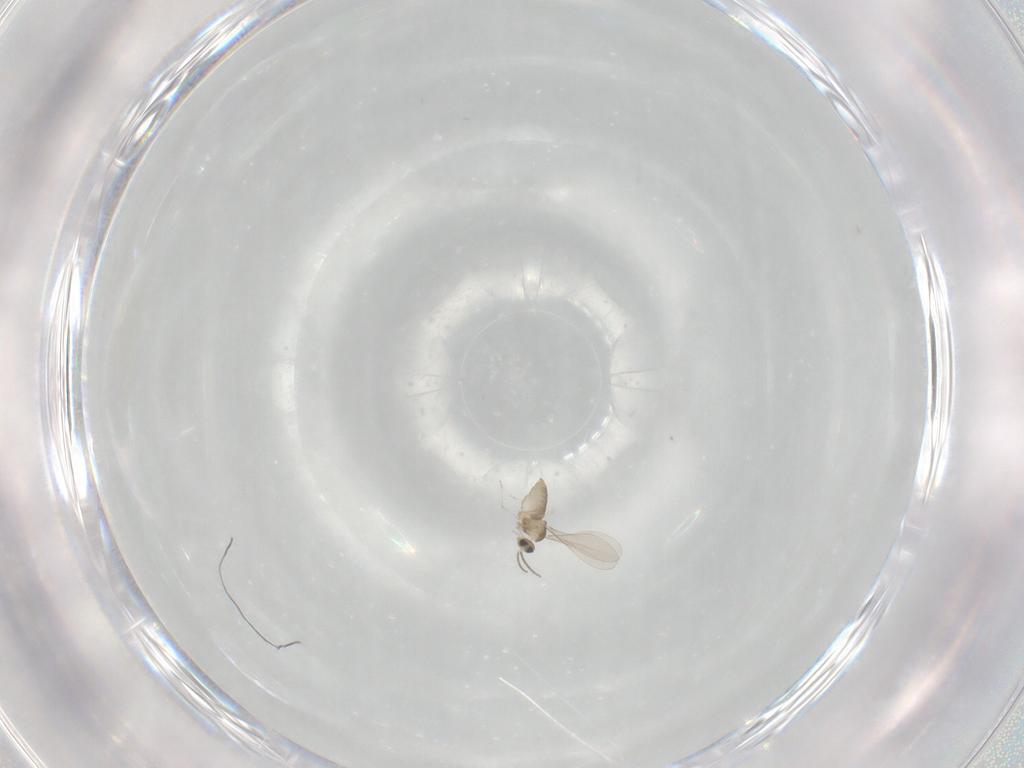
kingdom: Animalia
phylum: Arthropoda
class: Insecta
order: Diptera
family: Cecidomyiidae
